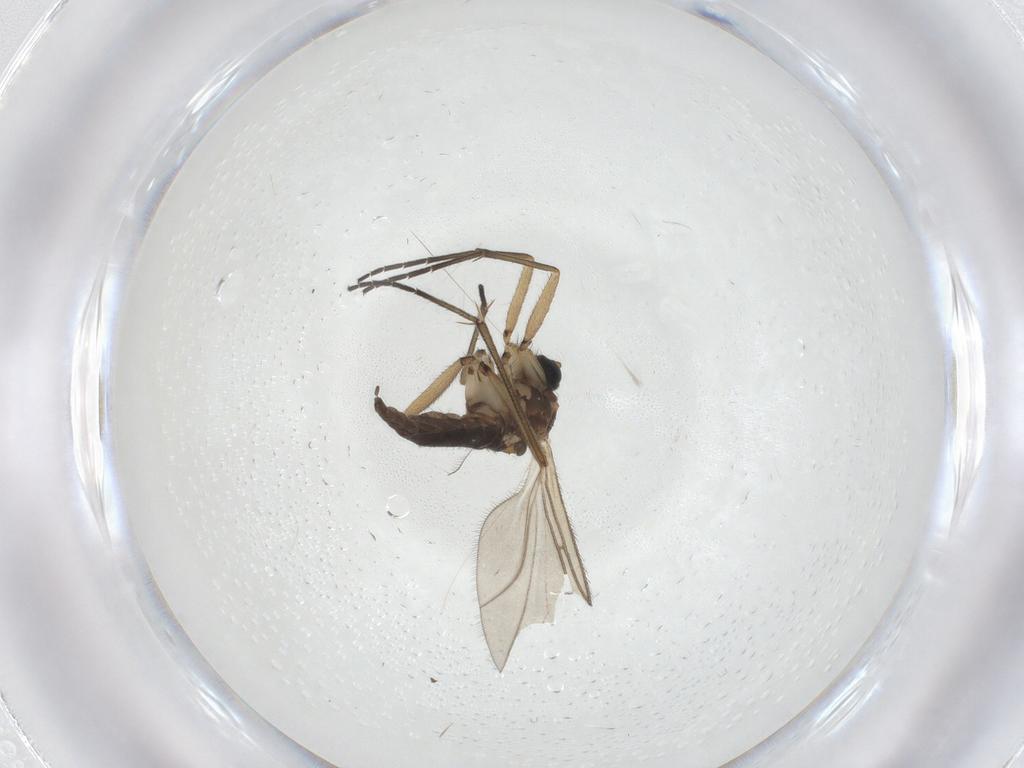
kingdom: Animalia
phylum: Arthropoda
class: Insecta
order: Diptera
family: Sciaridae
